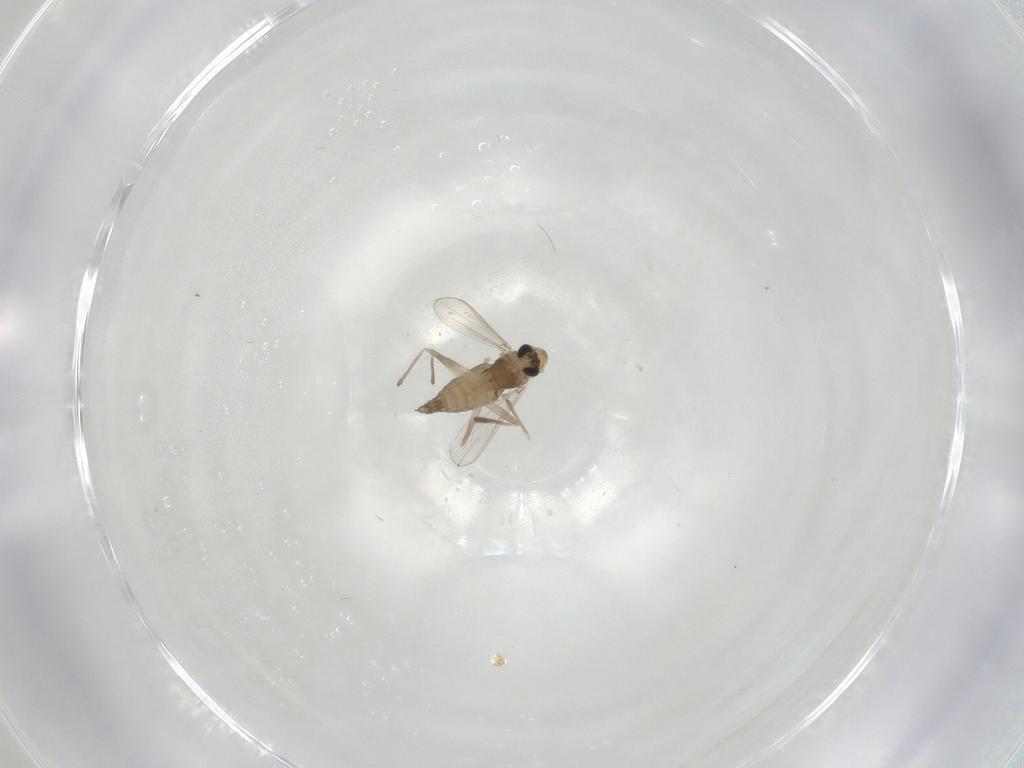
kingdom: Animalia
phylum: Arthropoda
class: Insecta
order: Diptera
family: Chironomidae
